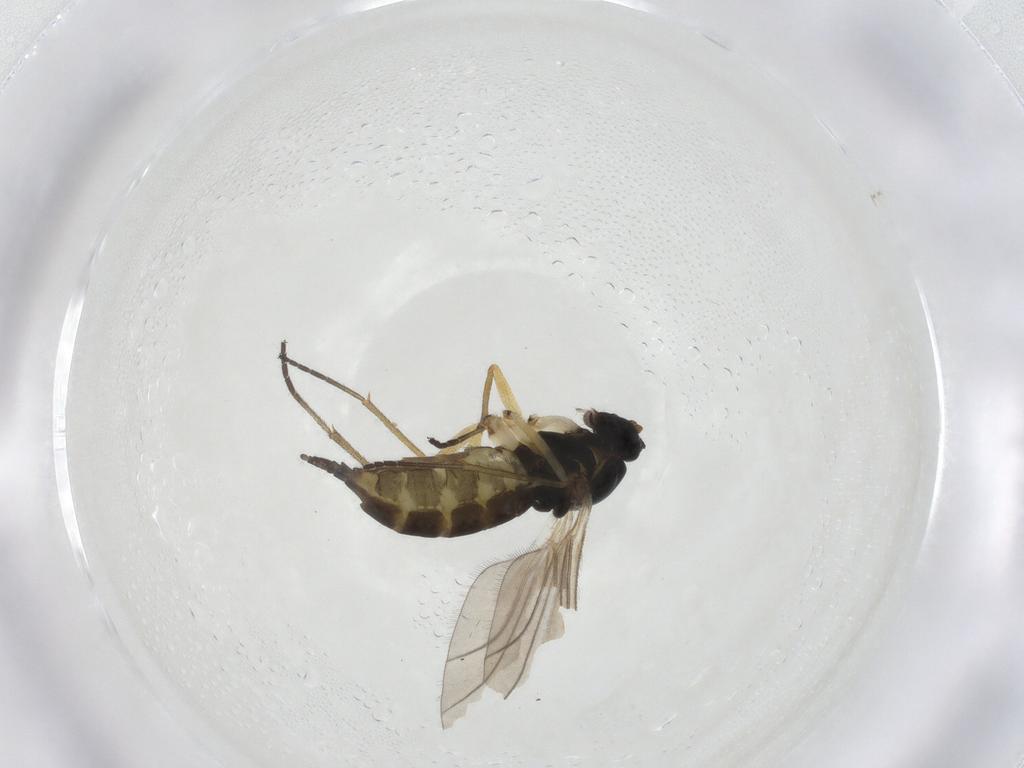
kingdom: Animalia
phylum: Arthropoda
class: Insecta
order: Diptera
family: Sciaridae
